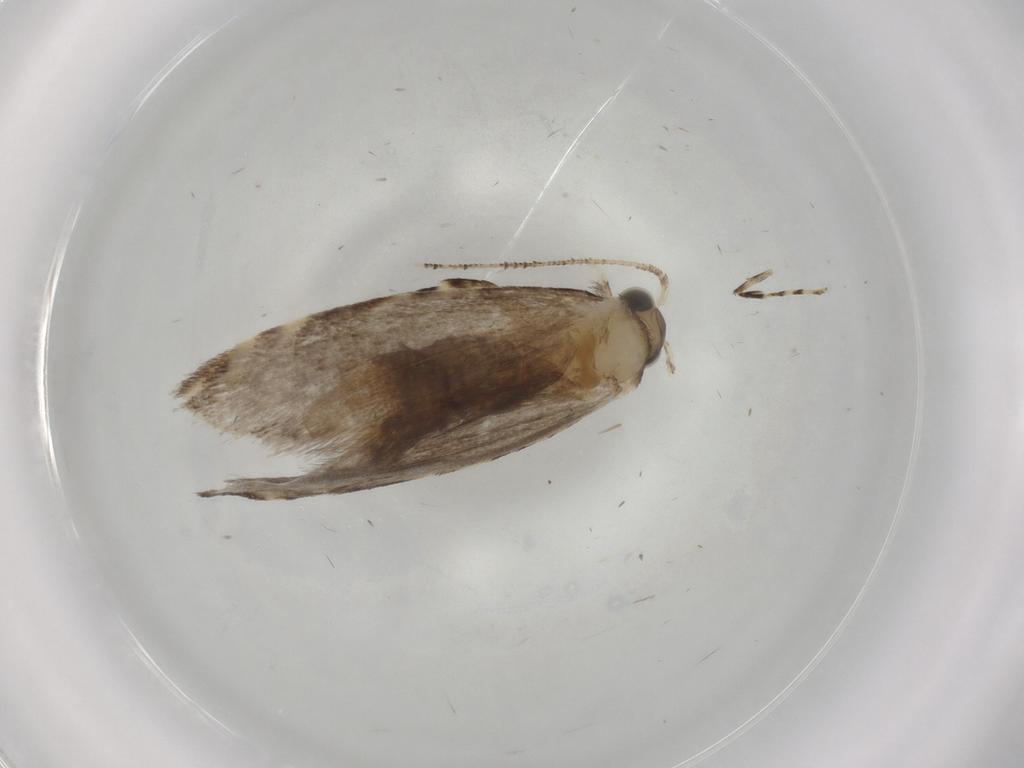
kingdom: Animalia
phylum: Arthropoda
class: Insecta
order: Lepidoptera
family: Tineidae
